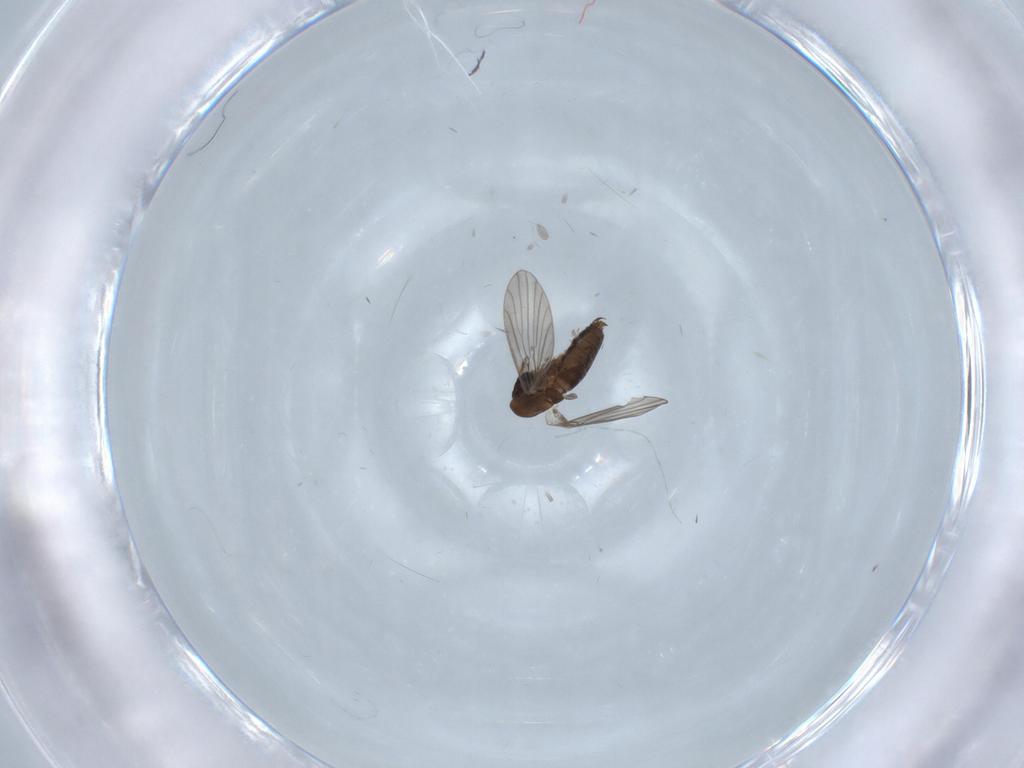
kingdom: Animalia
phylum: Arthropoda
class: Insecta
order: Diptera
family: Phoridae
